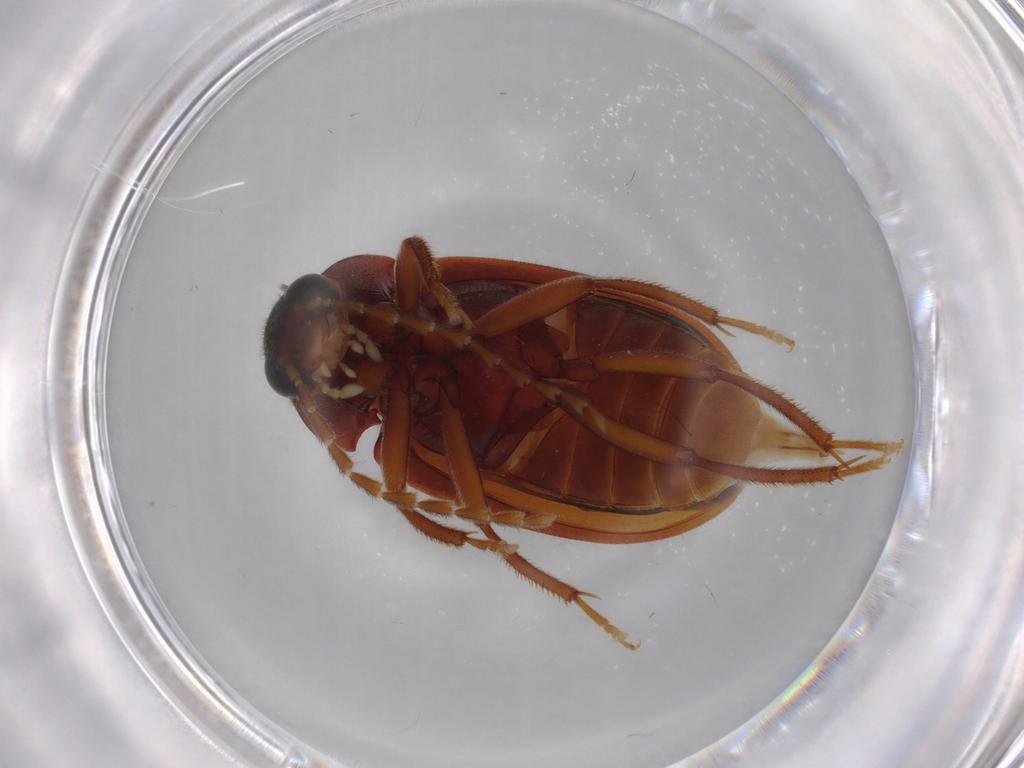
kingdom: Animalia
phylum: Arthropoda
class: Insecta
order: Coleoptera
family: Ptilodactylidae
